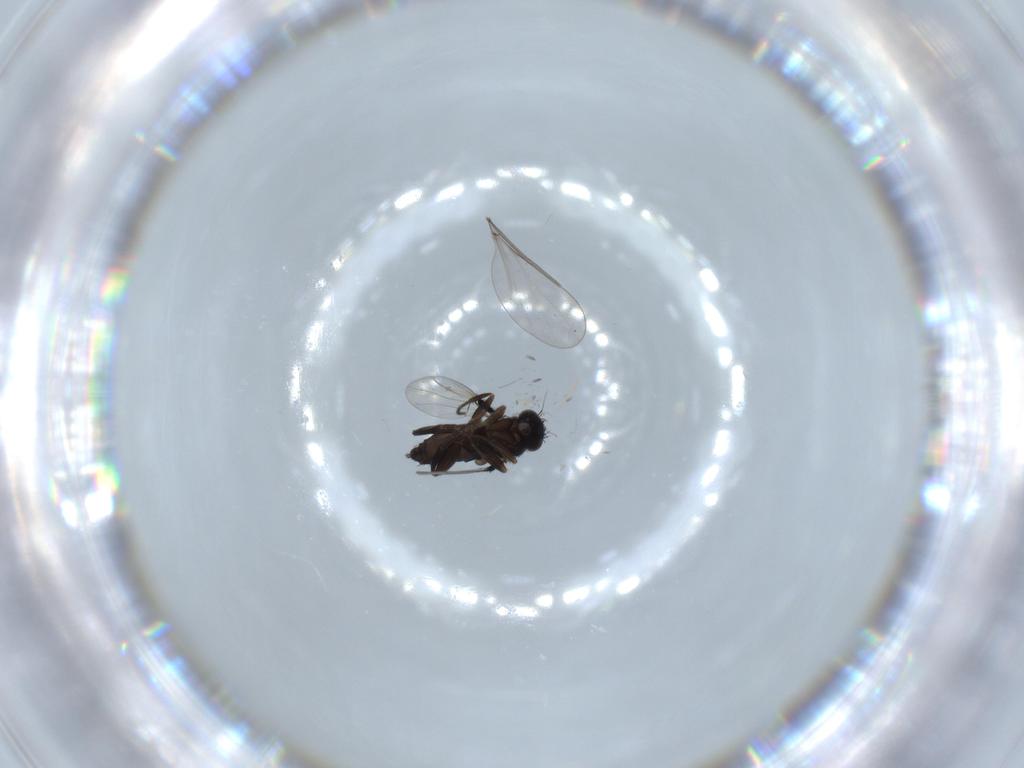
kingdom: Animalia
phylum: Arthropoda
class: Insecta
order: Diptera
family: Phoridae
